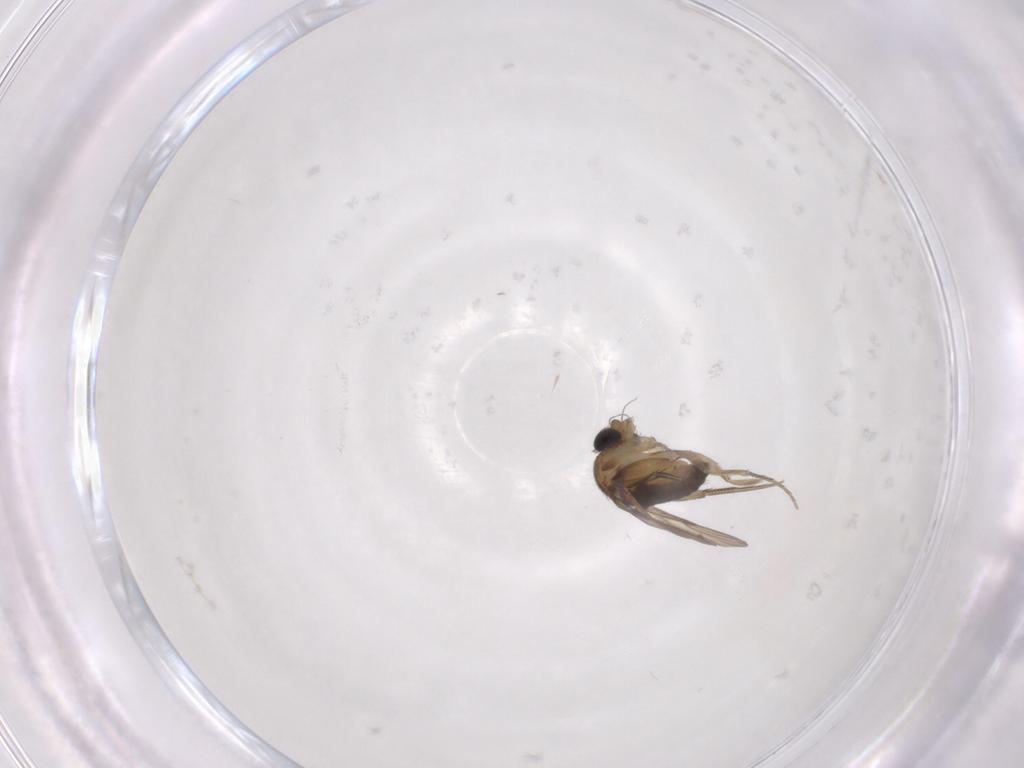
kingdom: Animalia
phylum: Arthropoda
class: Insecta
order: Diptera
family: Phoridae
